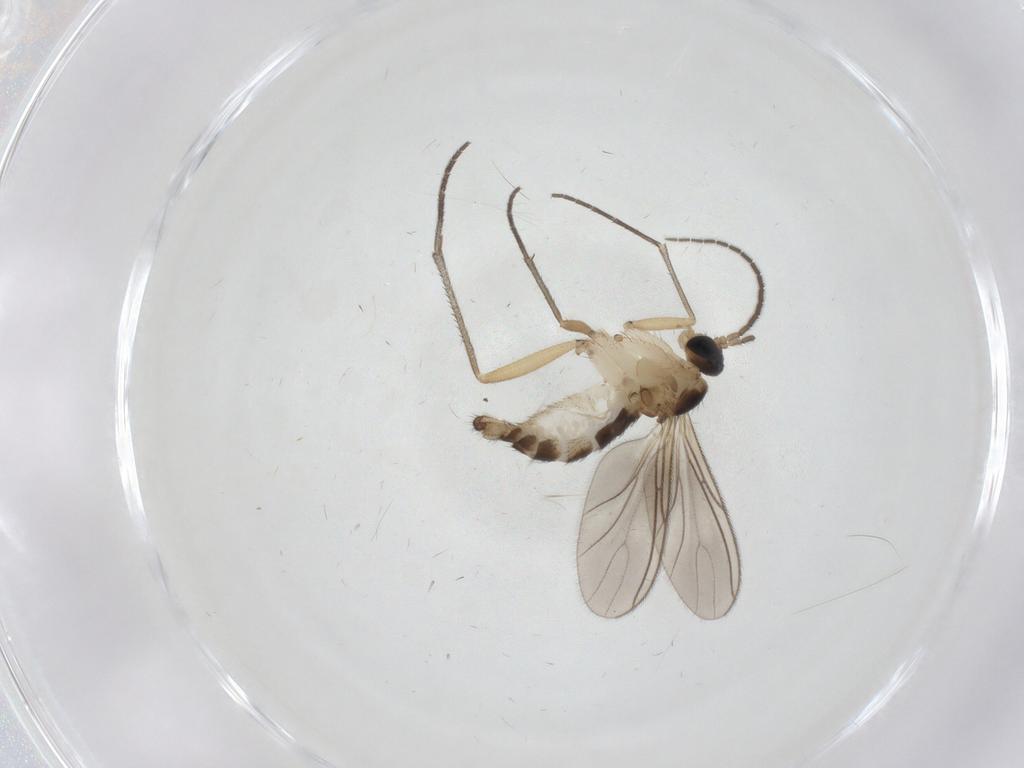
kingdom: Animalia
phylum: Arthropoda
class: Insecta
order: Diptera
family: Sciaridae
